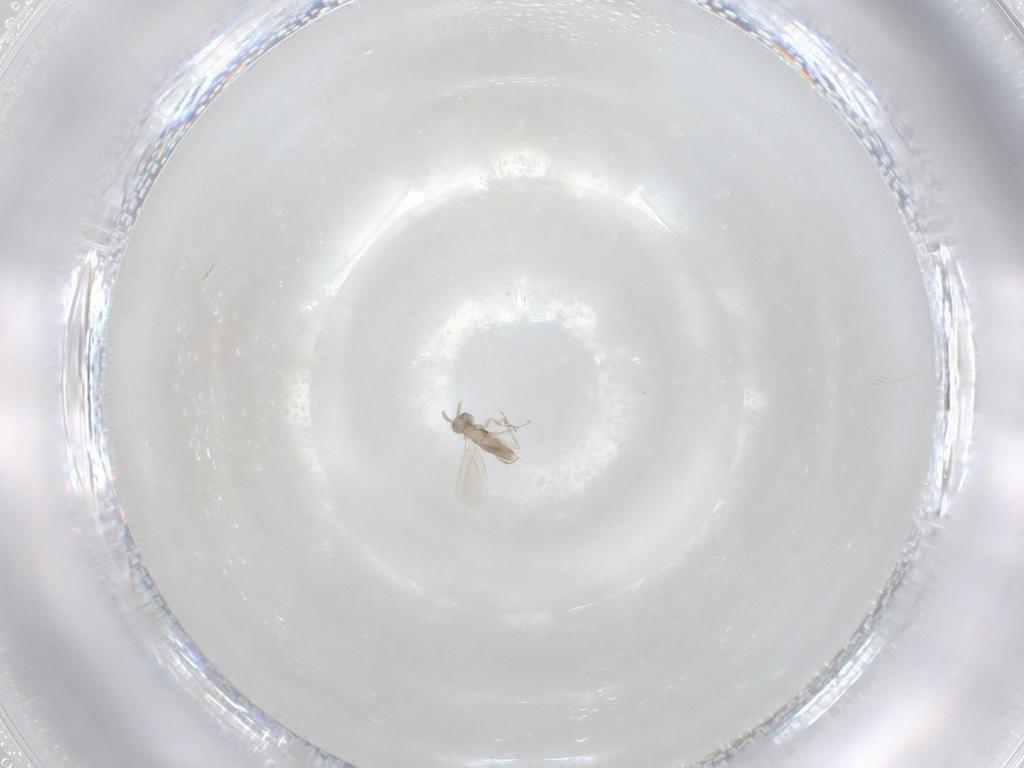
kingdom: Animalia
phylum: Arthropoda
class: Insecta
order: Hymenoptera
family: Aphelinidae
